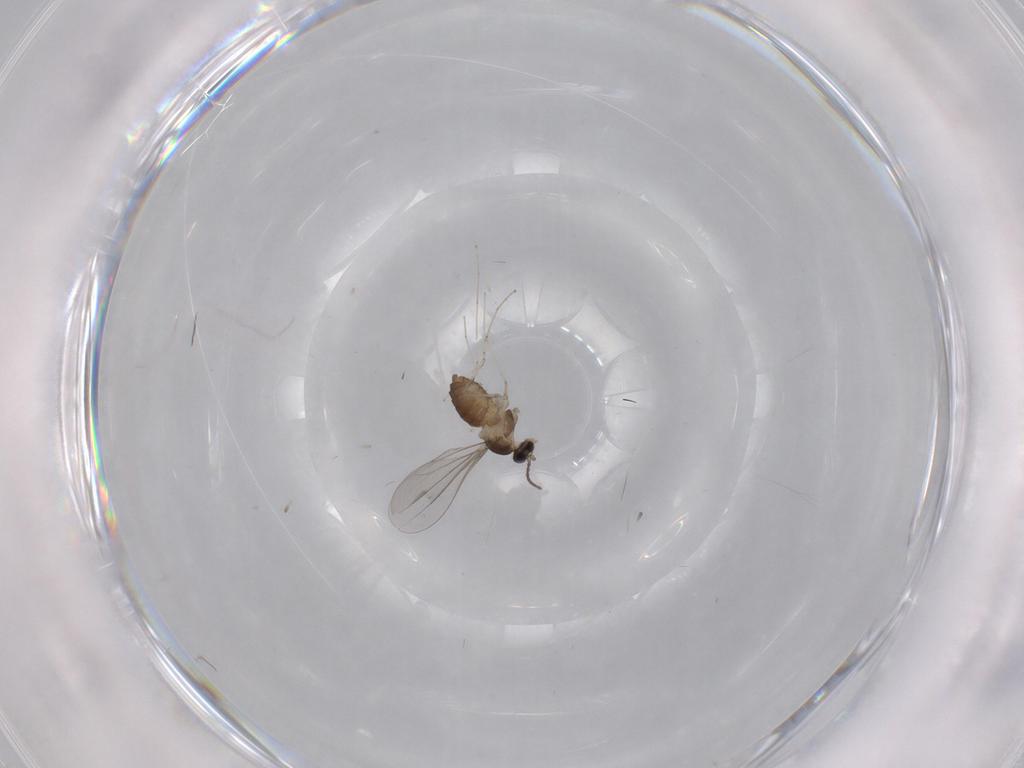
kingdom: Animalia
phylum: Arthropoda
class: Insecta
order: Diptera
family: Cecidomyiidae
